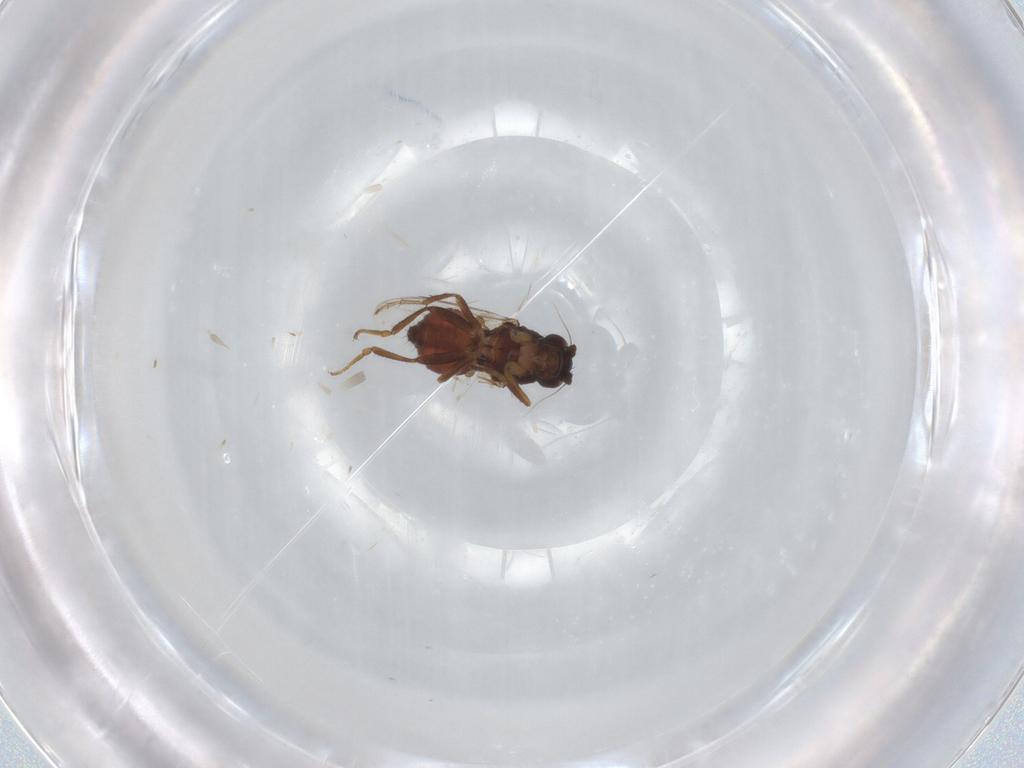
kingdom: Animalia
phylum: Arthropoda
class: Insecta
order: Diptera
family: Sphaeroceridae
